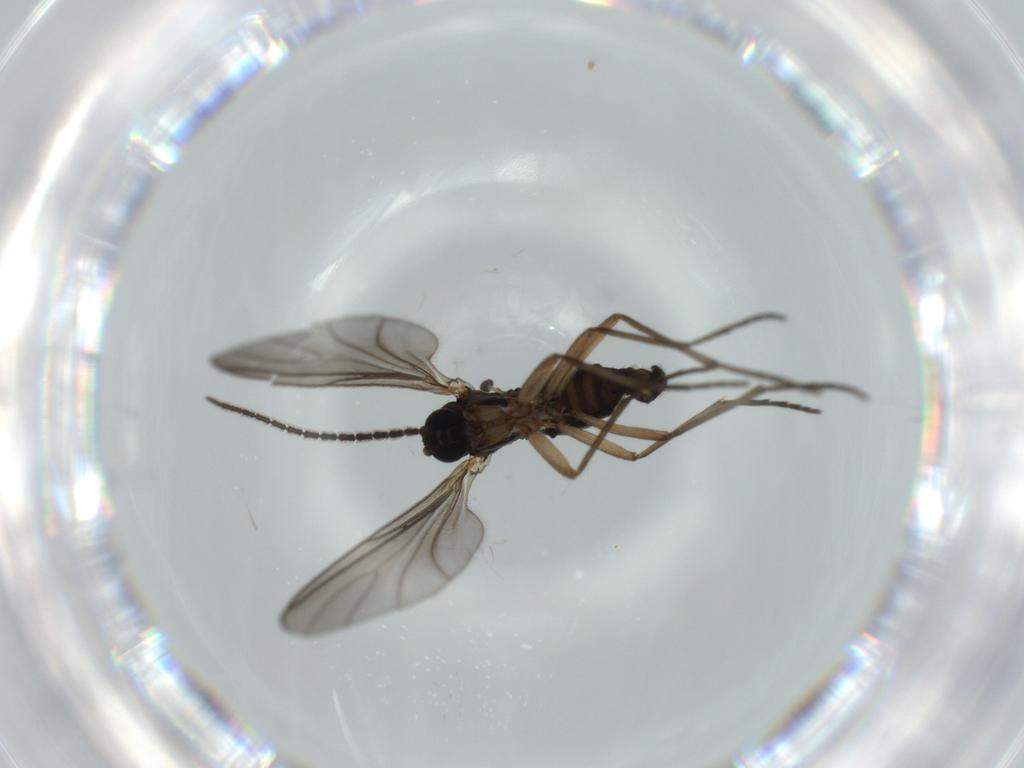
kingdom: Animalia
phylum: Arthropoda
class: Insecta
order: Diptera
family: Sciaridae
